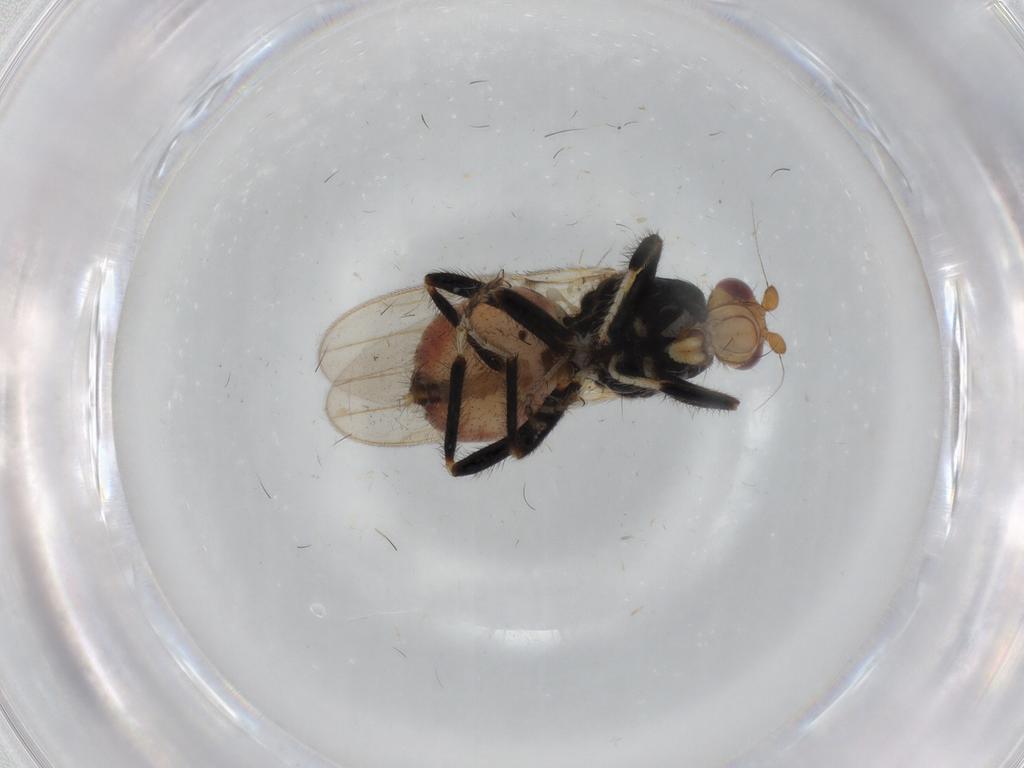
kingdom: Animalia
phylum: Arthropoda
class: Insecta
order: Diptera
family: Sphaeroceridae
